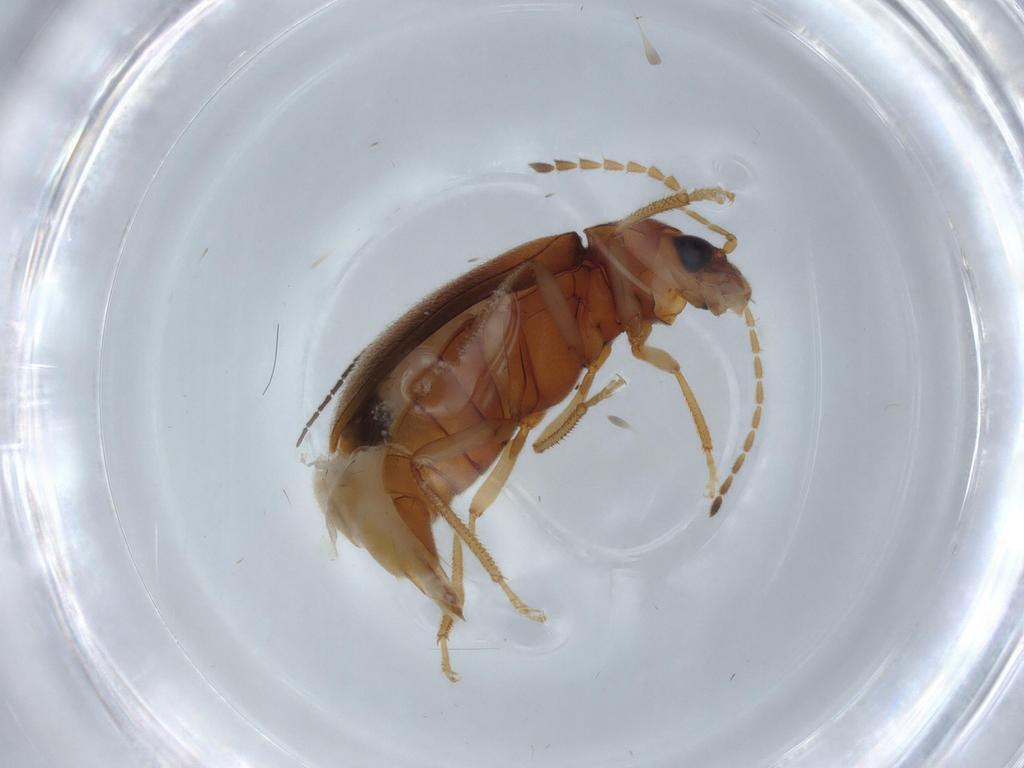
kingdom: Animalia
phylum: Arthropoda
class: Insecta
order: Coleoptera
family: Ptilodactylidae
